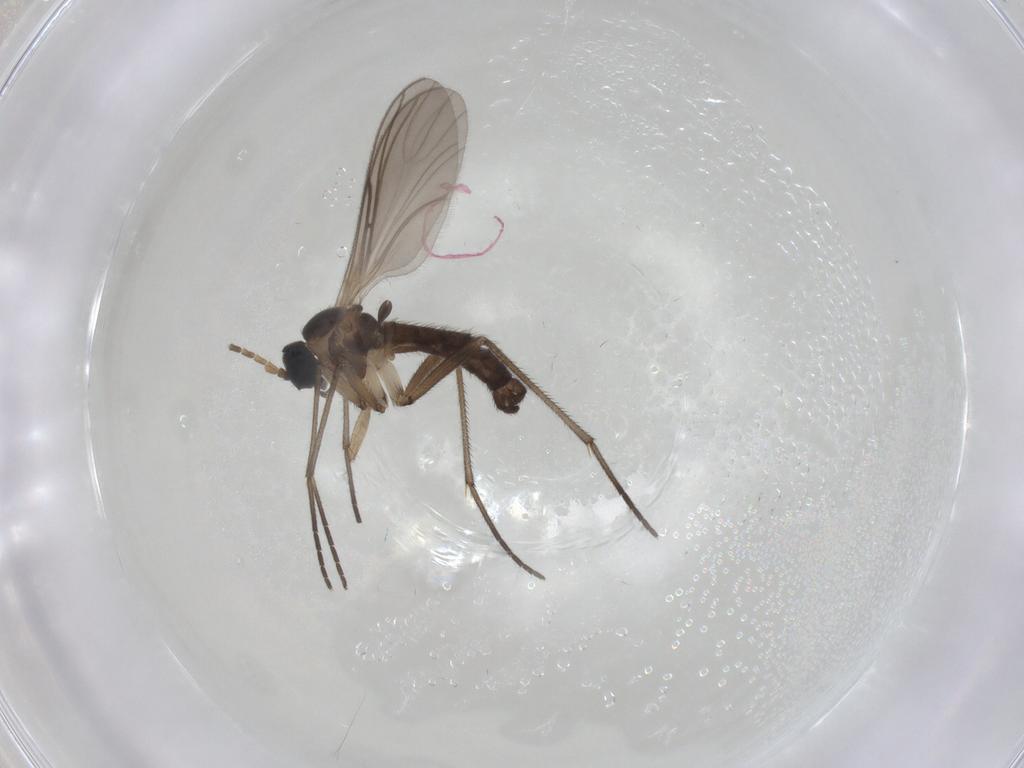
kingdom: Animalia
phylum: Arthropoda
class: Insecta
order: Diptera
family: Sciaridae
